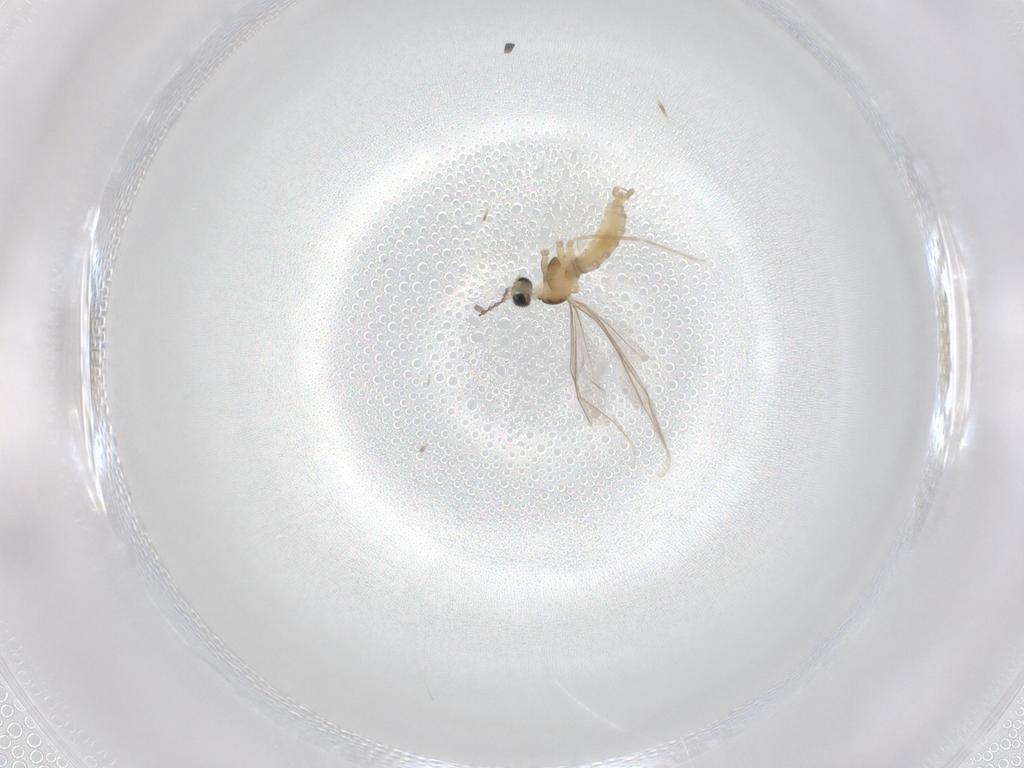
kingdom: Animalia
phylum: Arthropoda
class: Insecta
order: Diptera
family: Cecidomyiidae
